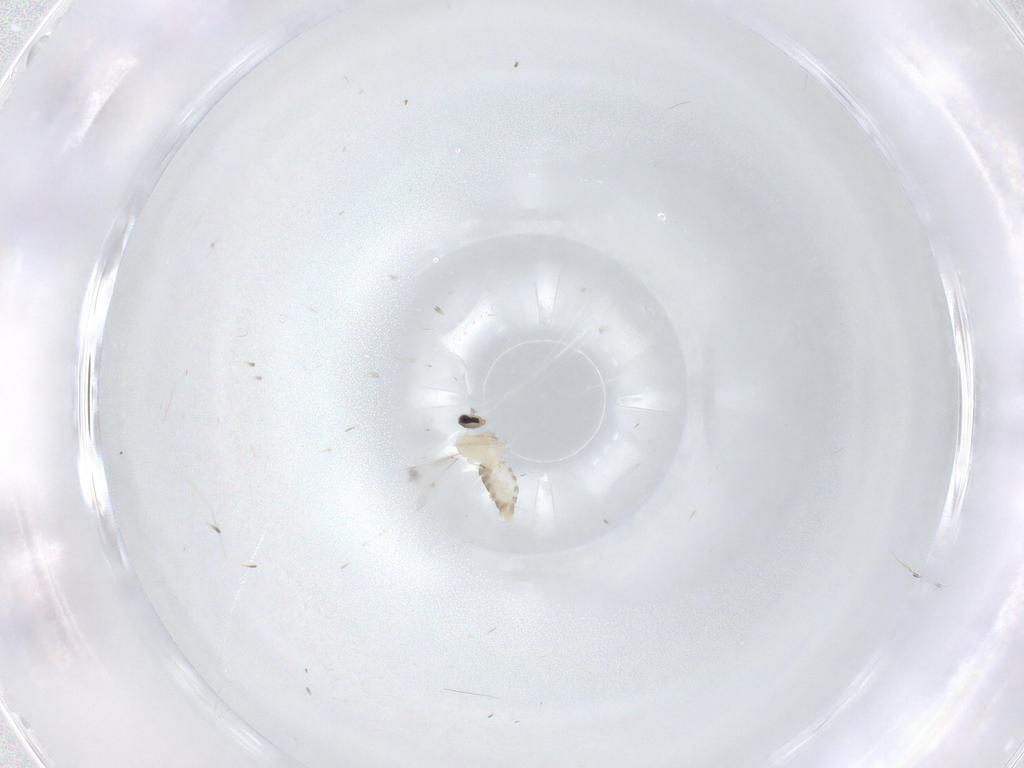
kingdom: Animalia
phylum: Arthropoda
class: Insecta
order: Diptera
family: Cecidomyiidae
